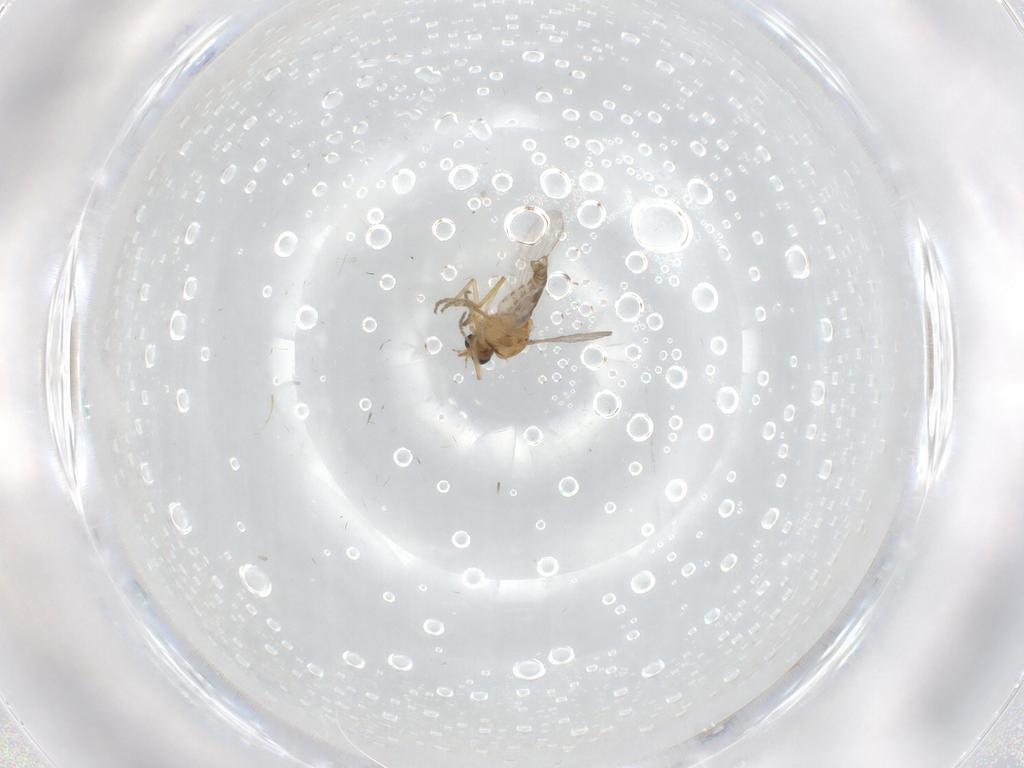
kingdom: Animalia
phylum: Arthropoda
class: Insecta
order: Diptera
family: Ceratopogonidae
